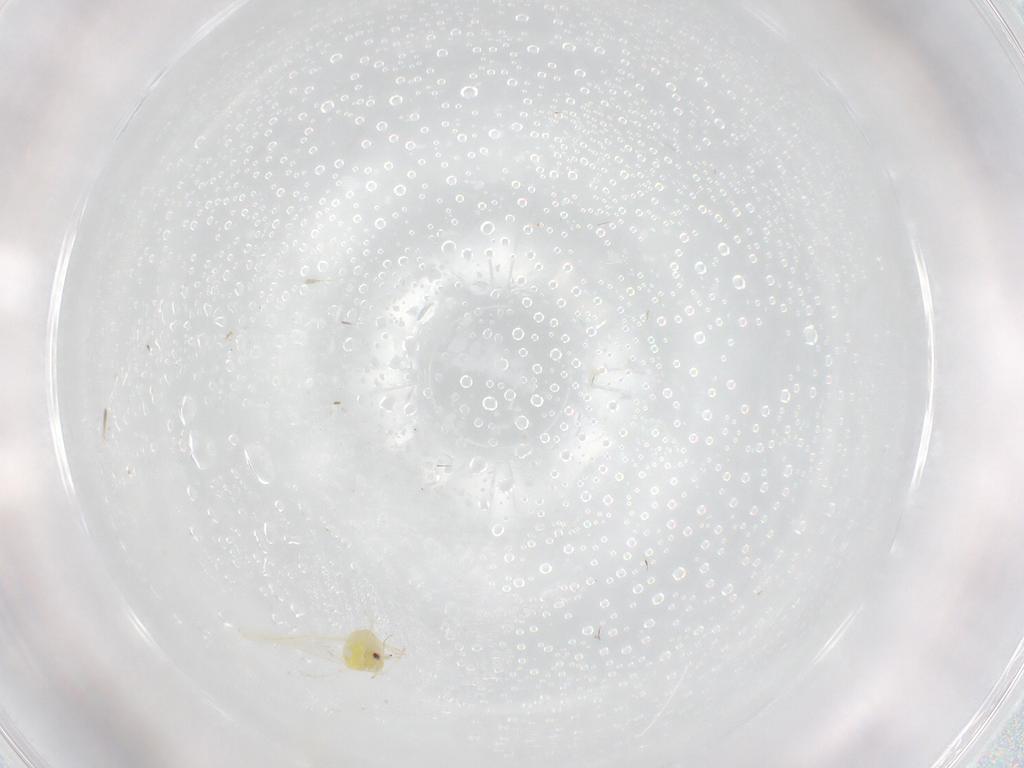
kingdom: Animalia
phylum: Arthropoda
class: Insecta
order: Hemiptera
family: Aleyrodidae
